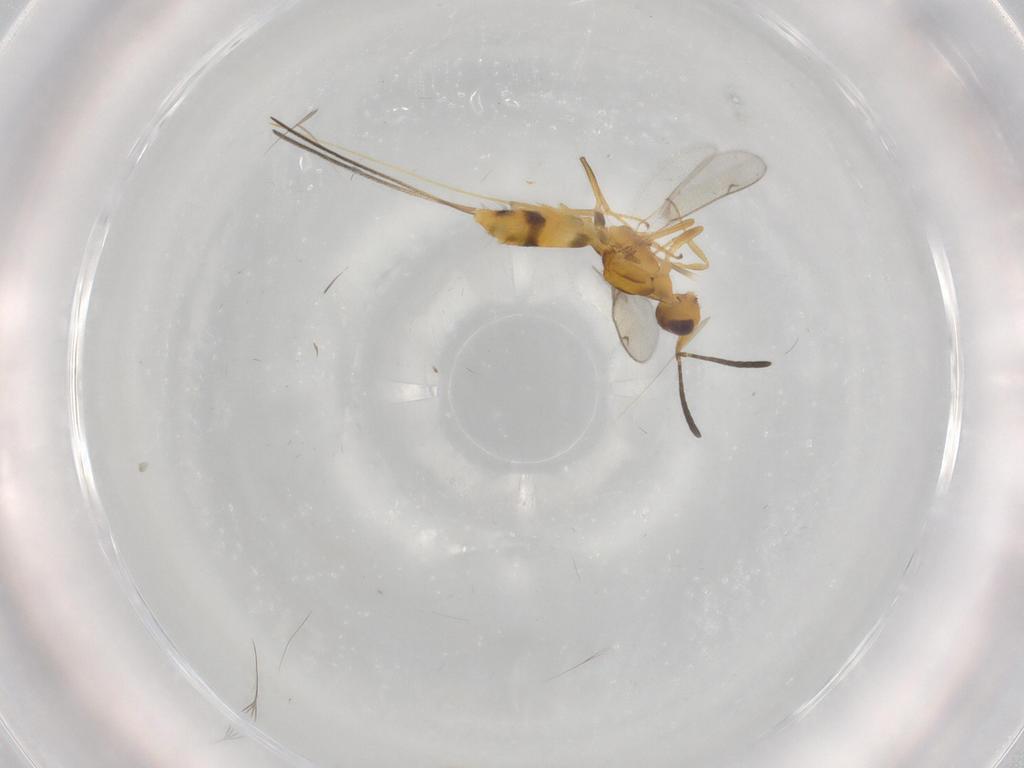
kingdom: Animalia
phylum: Arthropoda
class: Insecta
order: Hymenoptera
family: Eupelmidae
